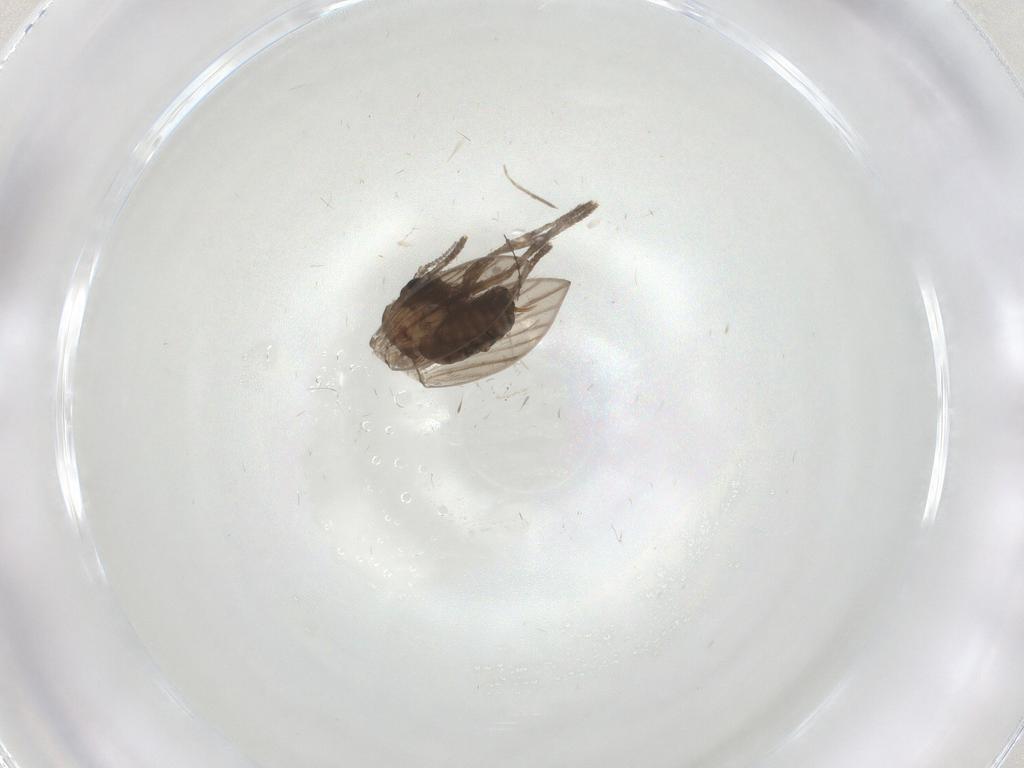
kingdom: Animalia
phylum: Arthropoda
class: Insecta
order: Diptera
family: Psychodidae
